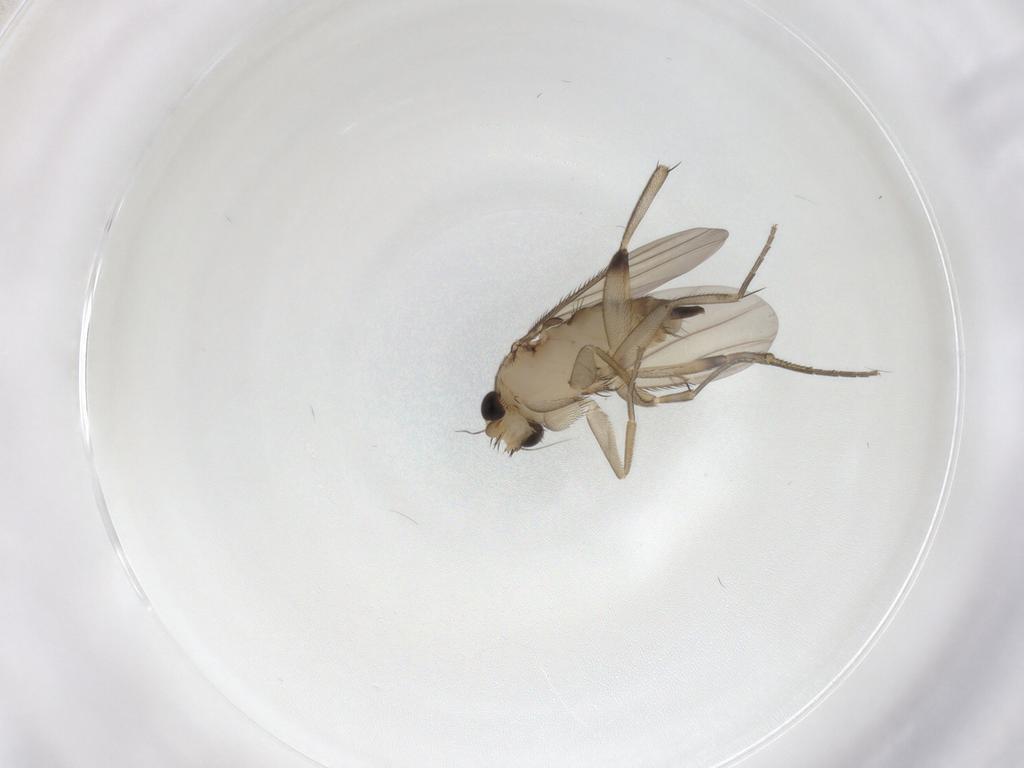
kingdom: Animalia
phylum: Arthropoda
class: Insecta
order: Diptera
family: Phoridae
